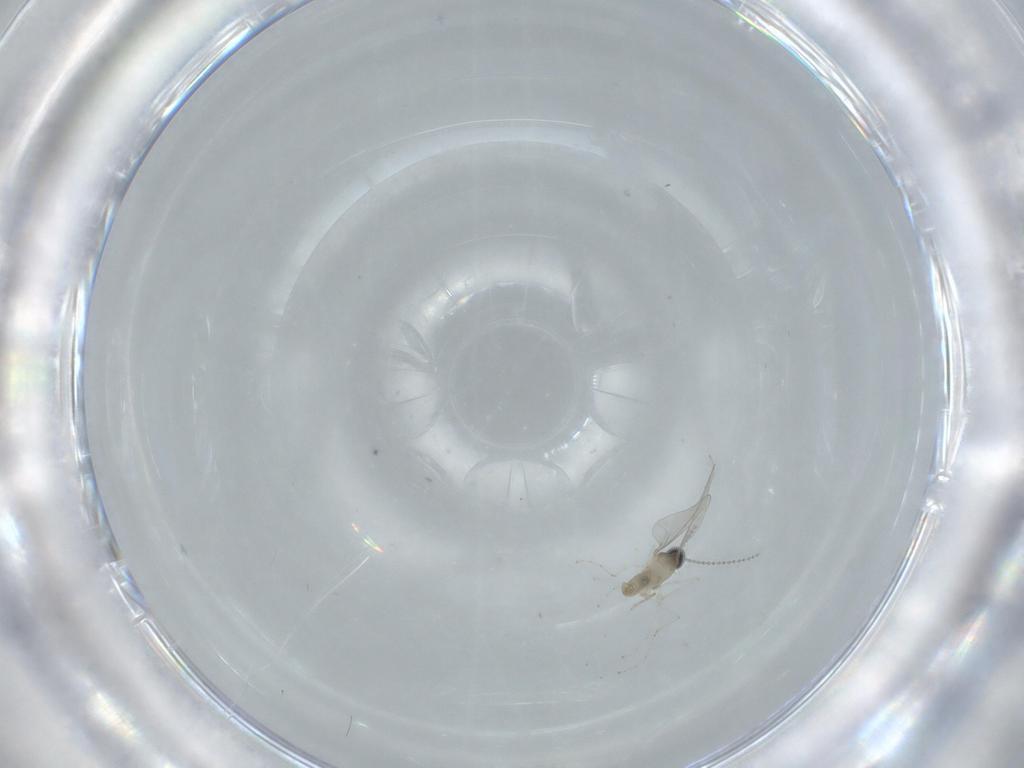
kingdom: Animalia
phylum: Arthropoda
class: Insecta
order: Diptera
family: Cecidomyiidae
